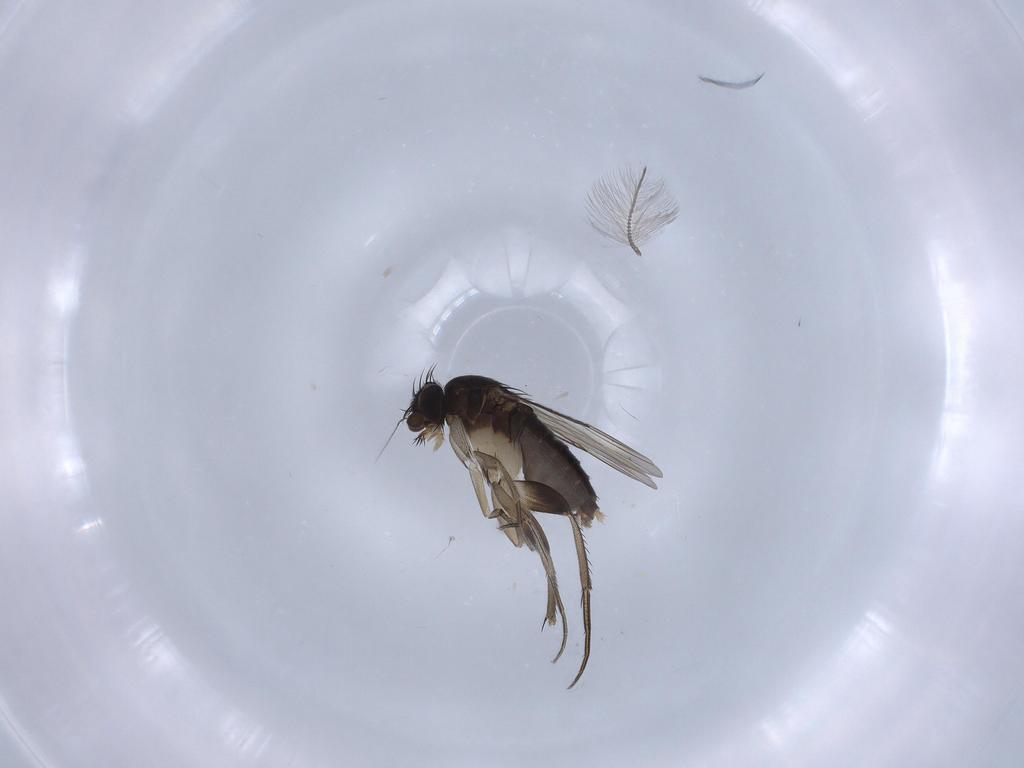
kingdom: Animalia
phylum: Arthropoda
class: Insecta
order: Diptera
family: Phoridae
